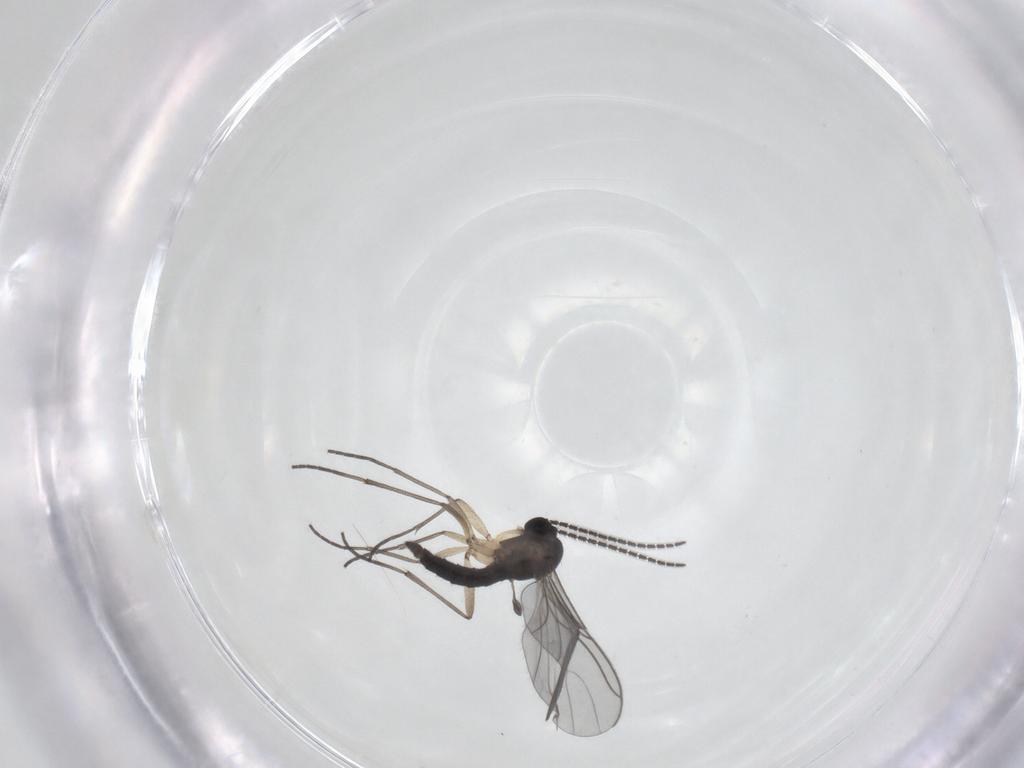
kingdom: Animalia
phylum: Arthropoda
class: Insecta
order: Diptera
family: Sciaridae
